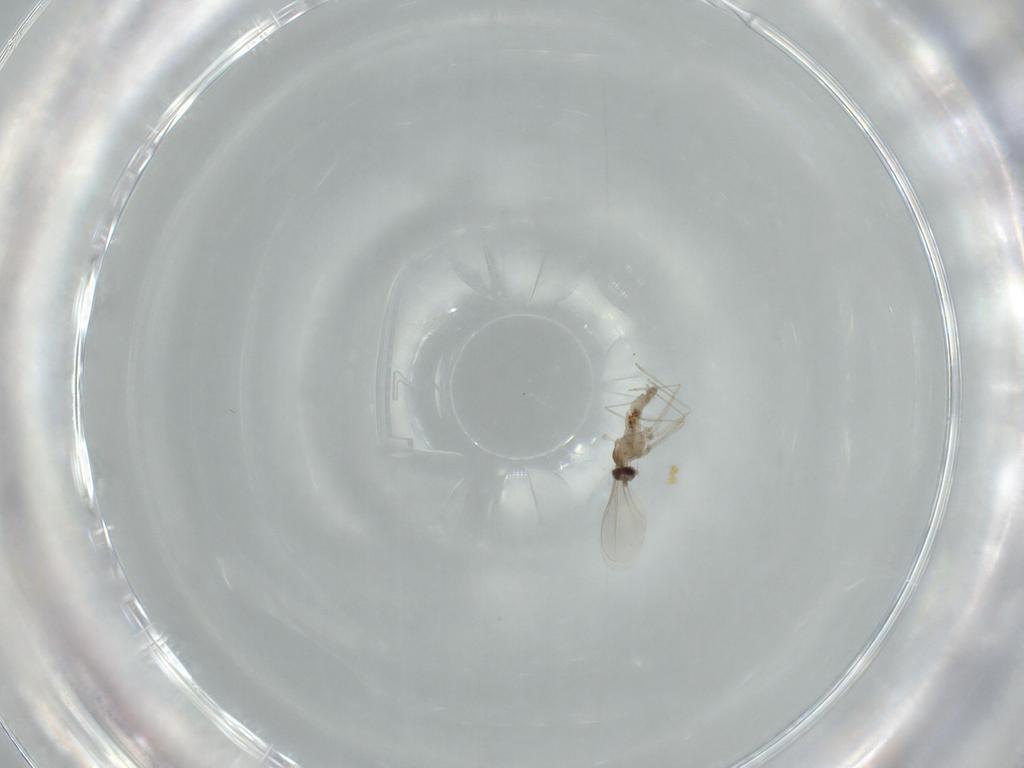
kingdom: Animalia
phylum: Arthropoda
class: Insecta
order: Diptera
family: Cecidomyiidae
